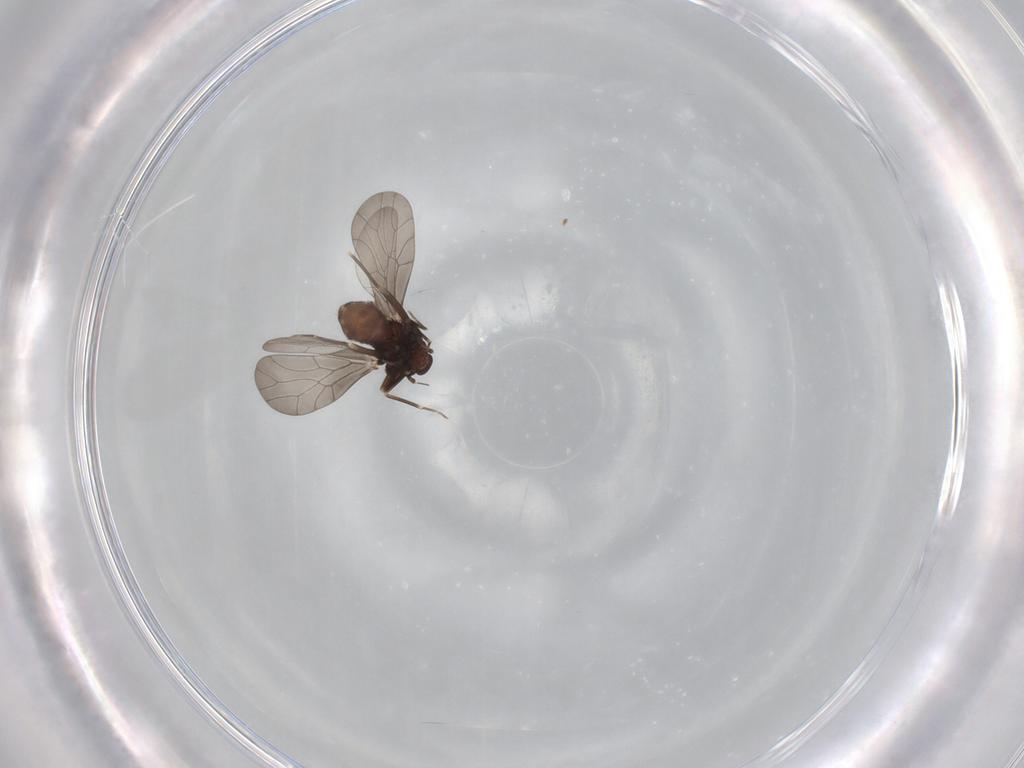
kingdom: Animalia
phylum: Arthropoda
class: Insecta
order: Psocodea
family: Lepidopsocidae
